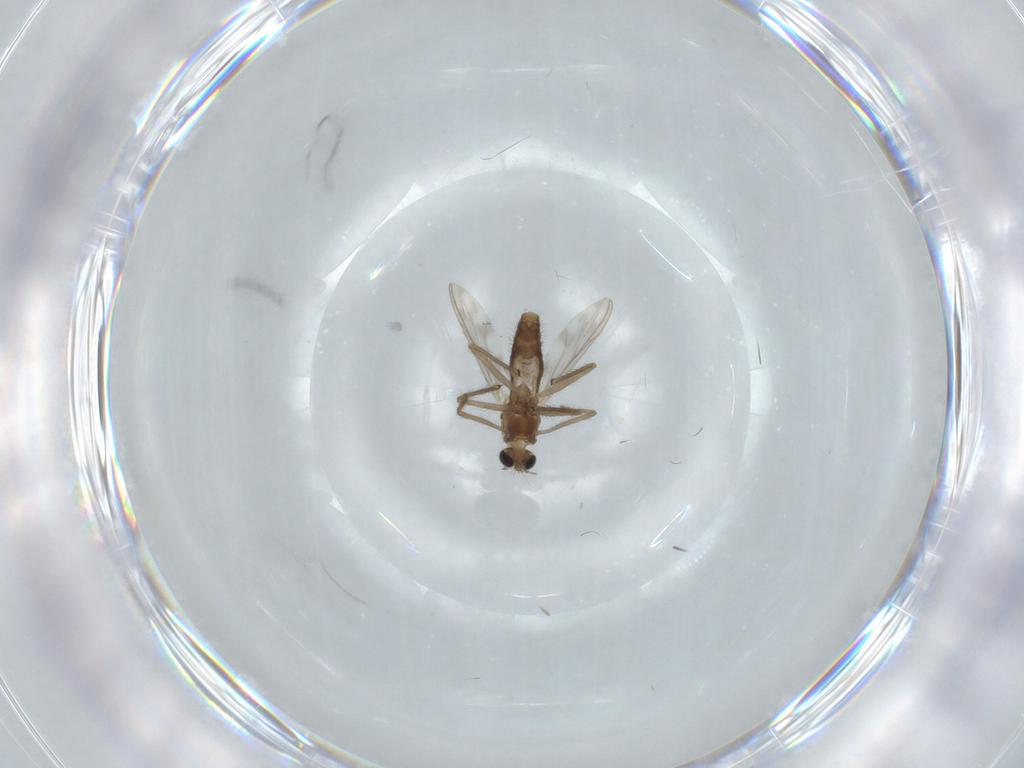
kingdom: Animalia
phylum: Arthropoda
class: Insecta
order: Diptera
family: Chironomidae
